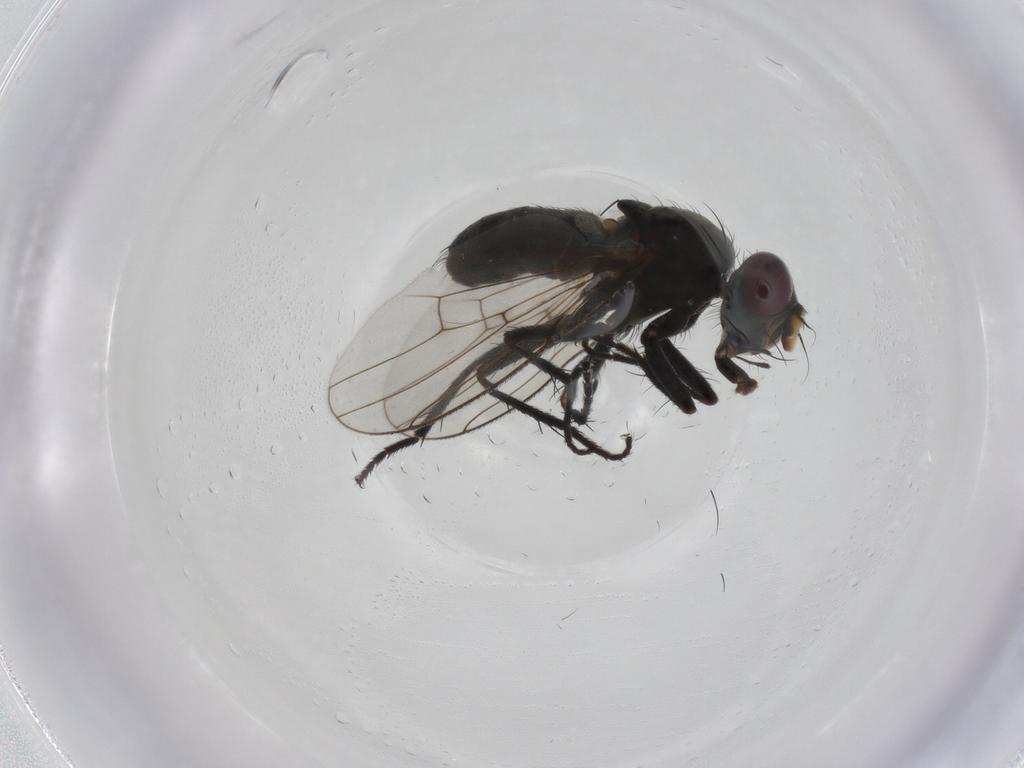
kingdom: Animalia
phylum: Arthropoda
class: Insecta
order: Diptera
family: Muscidae
